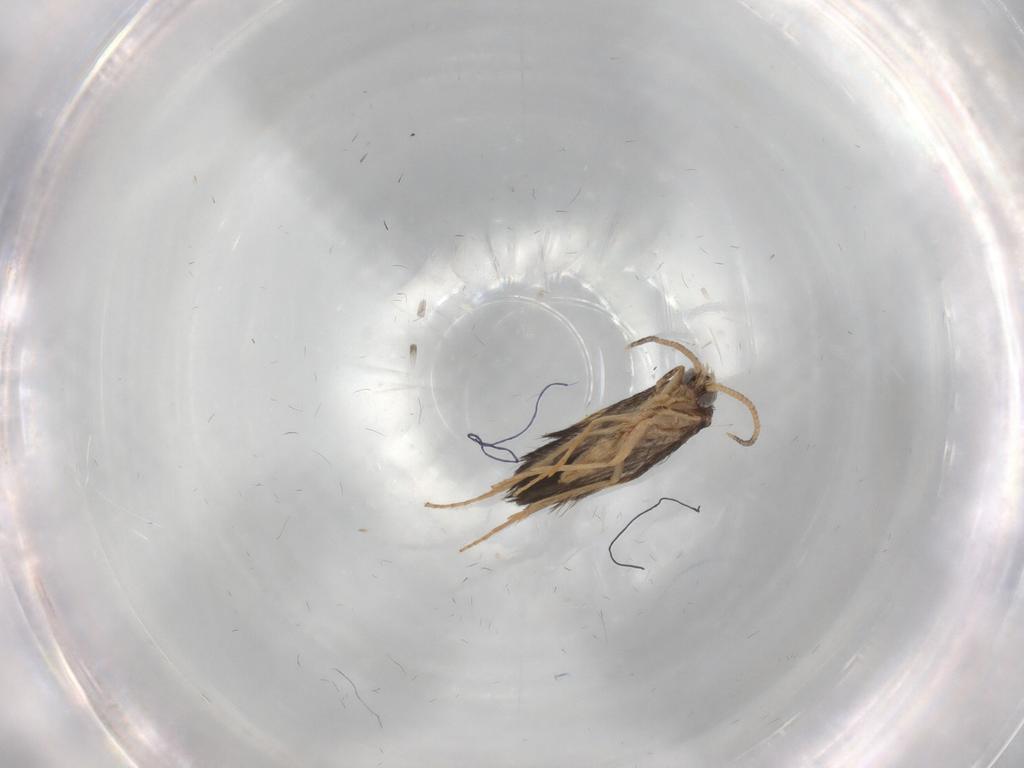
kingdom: Animalia
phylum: Arthropoda
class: Insecta
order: Trichoptera
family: Hydroptilidae
